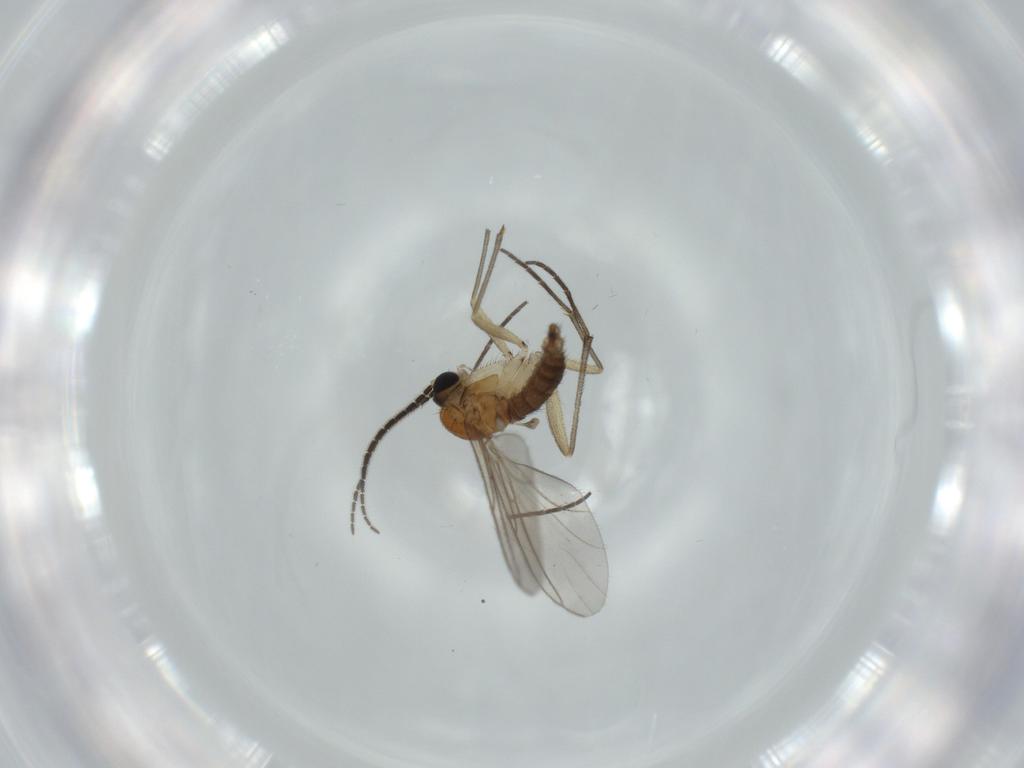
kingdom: Animalia
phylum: Arthropoda
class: Insecta
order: Diptera
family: Sciaridae
